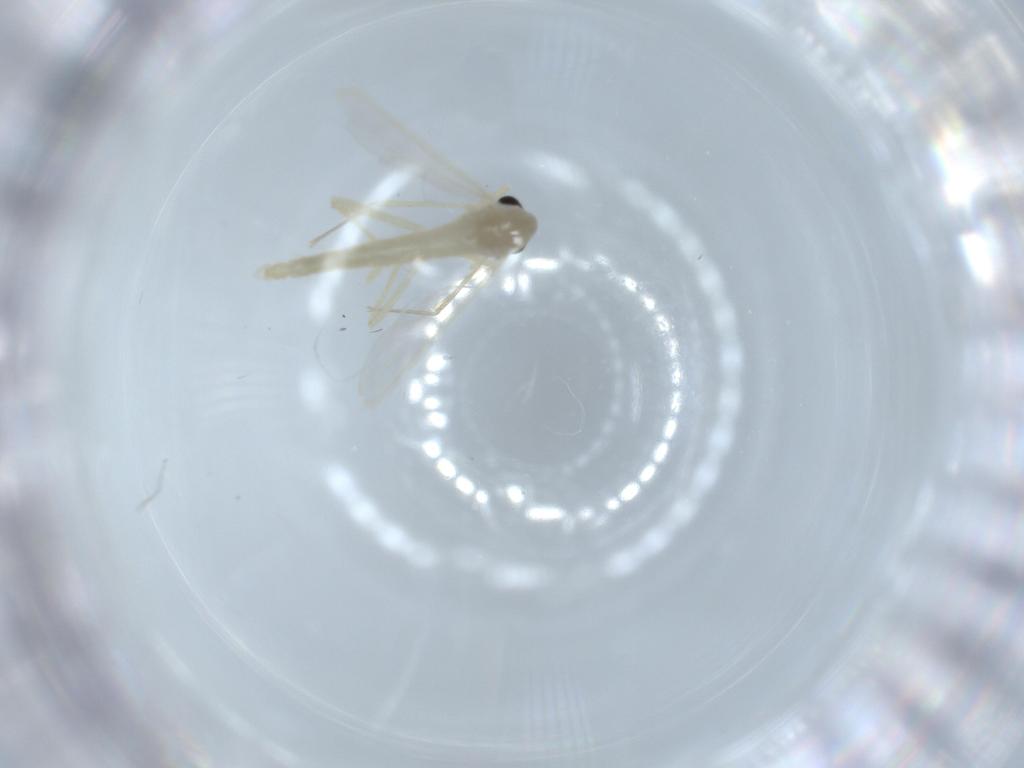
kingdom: Animalia
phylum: Arthropoda
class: Insecta
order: Diptera
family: Chironomidae
